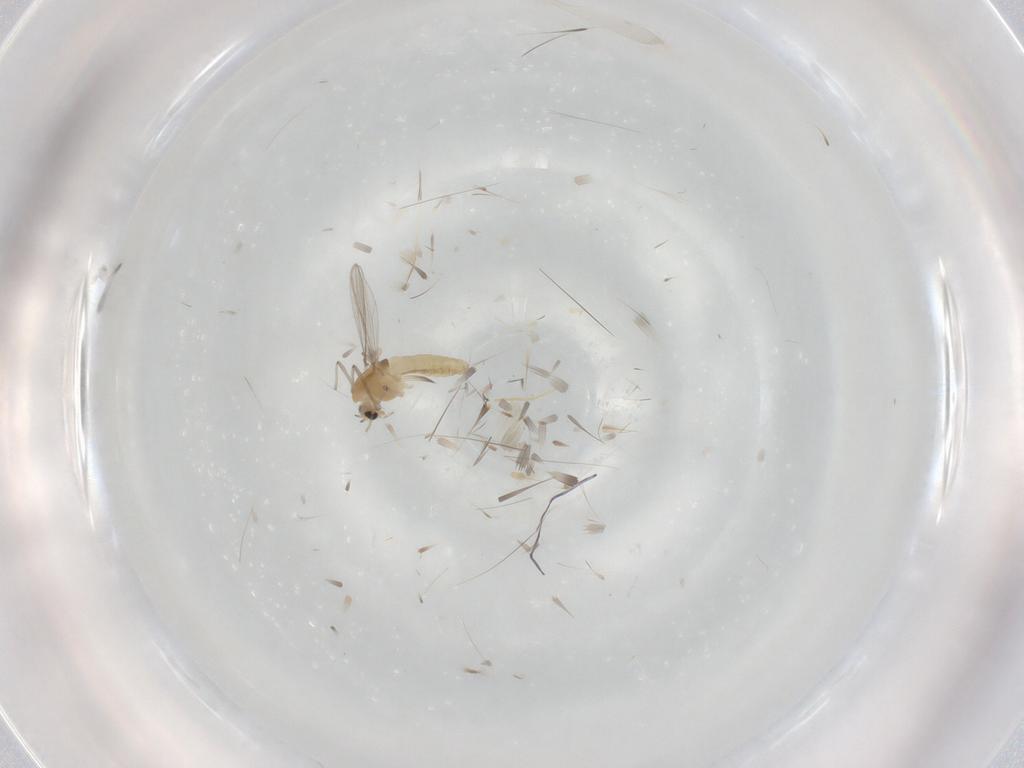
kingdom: Animalia
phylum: Arthropoda
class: Insecta
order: Diptera
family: Chironomidae
